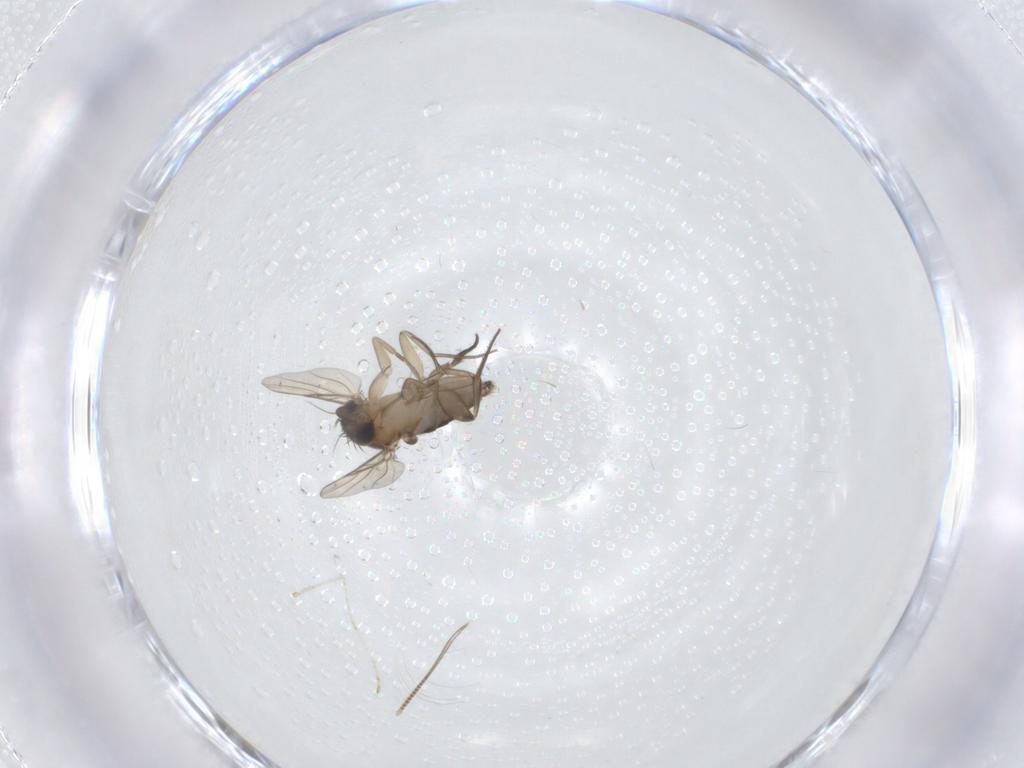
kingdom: Animalia
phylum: Arthropoda
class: Insecta
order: Diptera
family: Phoridae
